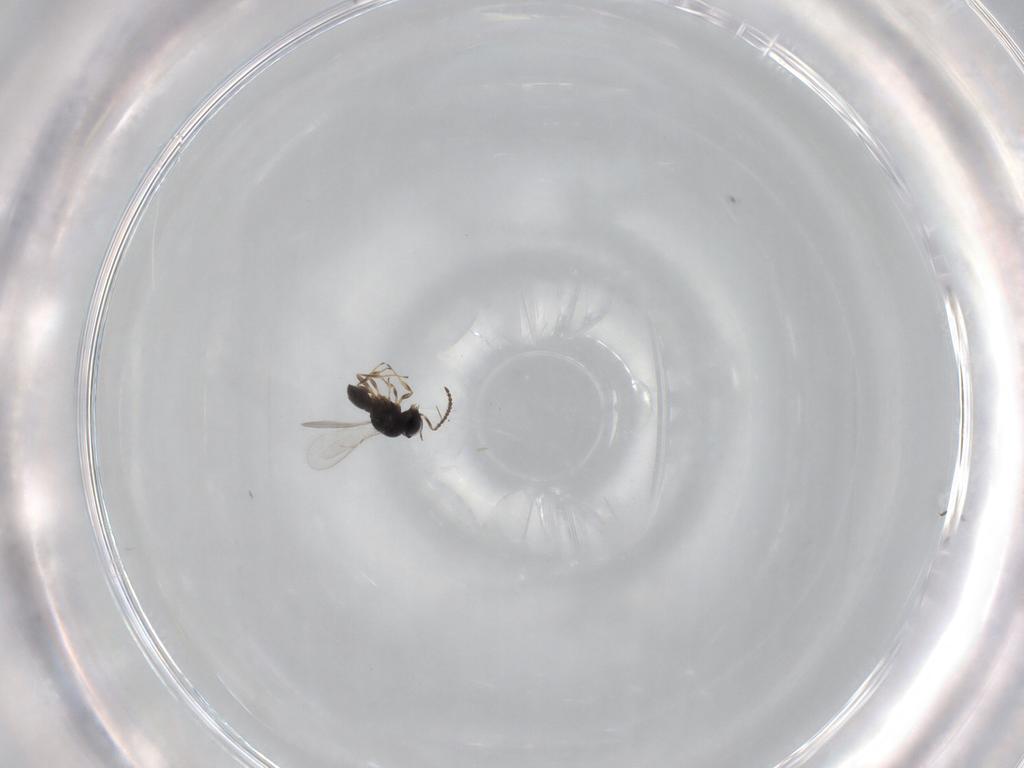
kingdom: Animalia
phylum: Arthropoda
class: Insecta
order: Hymenoptera
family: Scelionidae
